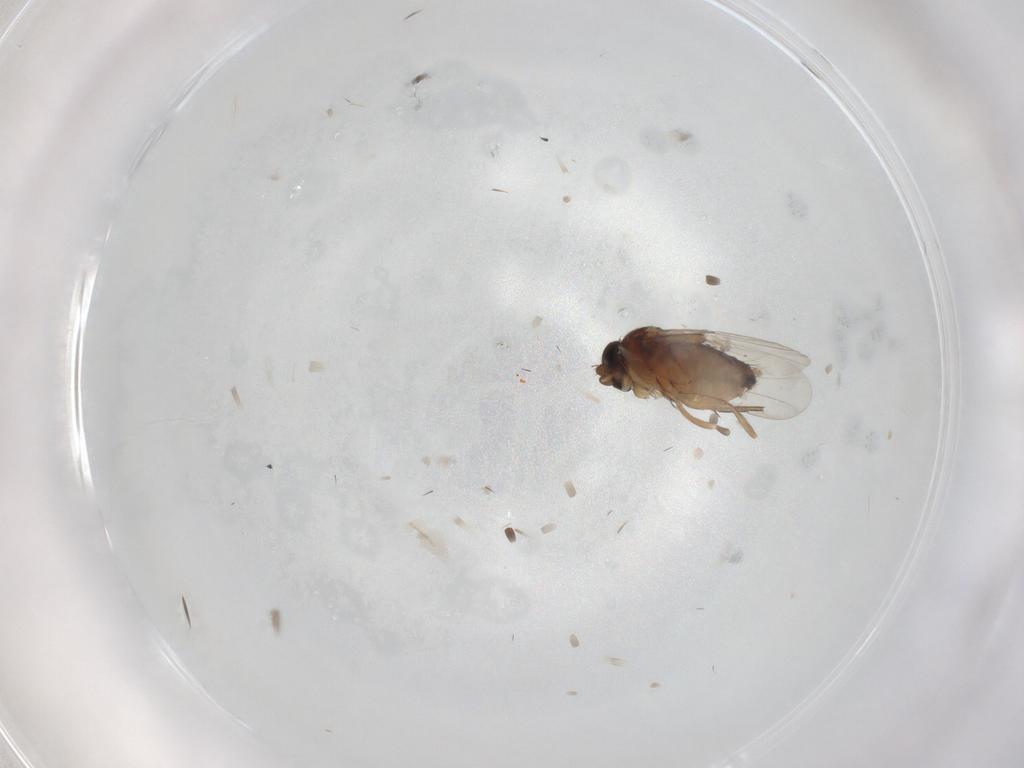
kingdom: Animalia
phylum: Arthropoda
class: Insecta
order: Diptera
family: Phoridae
